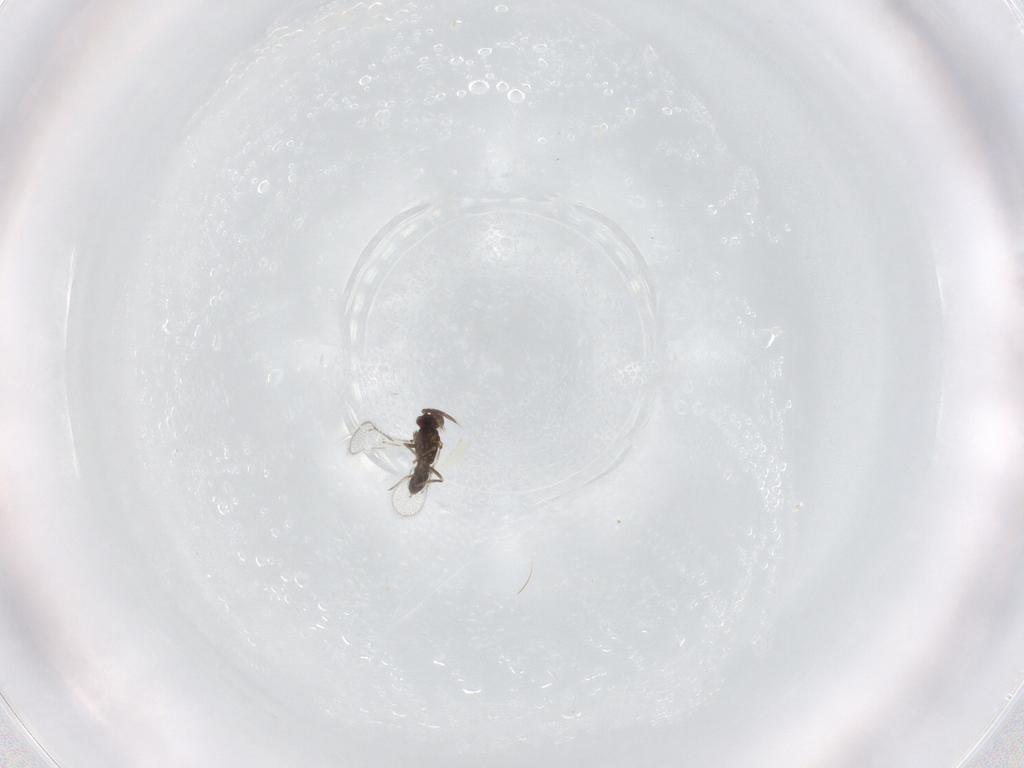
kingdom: Animalia
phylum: Arthropoda
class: Insecta
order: Hymenoptera
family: Eulophidae
